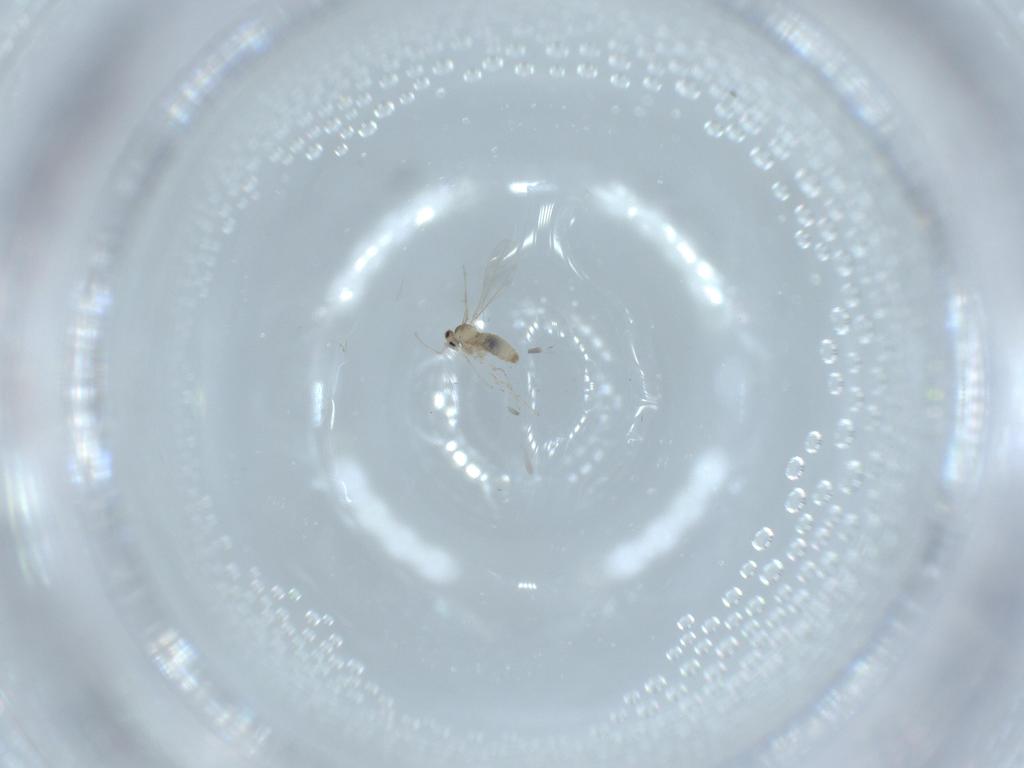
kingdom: Animalia
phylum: Arthropoda
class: Insecta
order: Diptera
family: Cecidomyiidae
